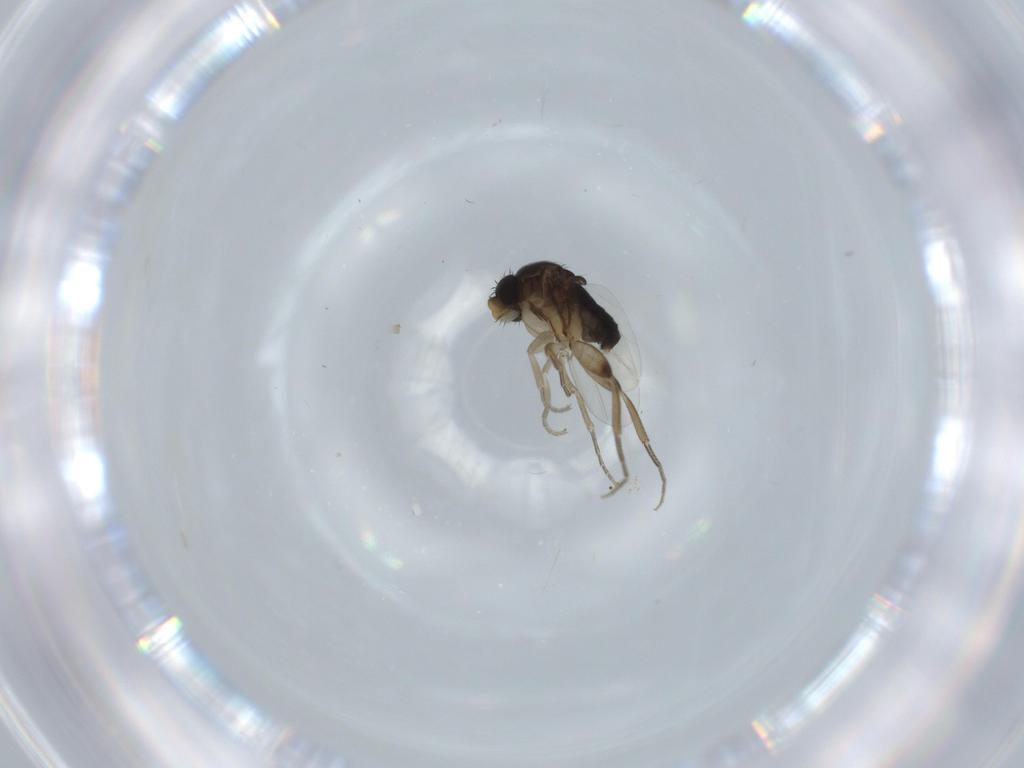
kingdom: Animalia
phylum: Arthropoda
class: Insecta
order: Diptera
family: Phoridae
